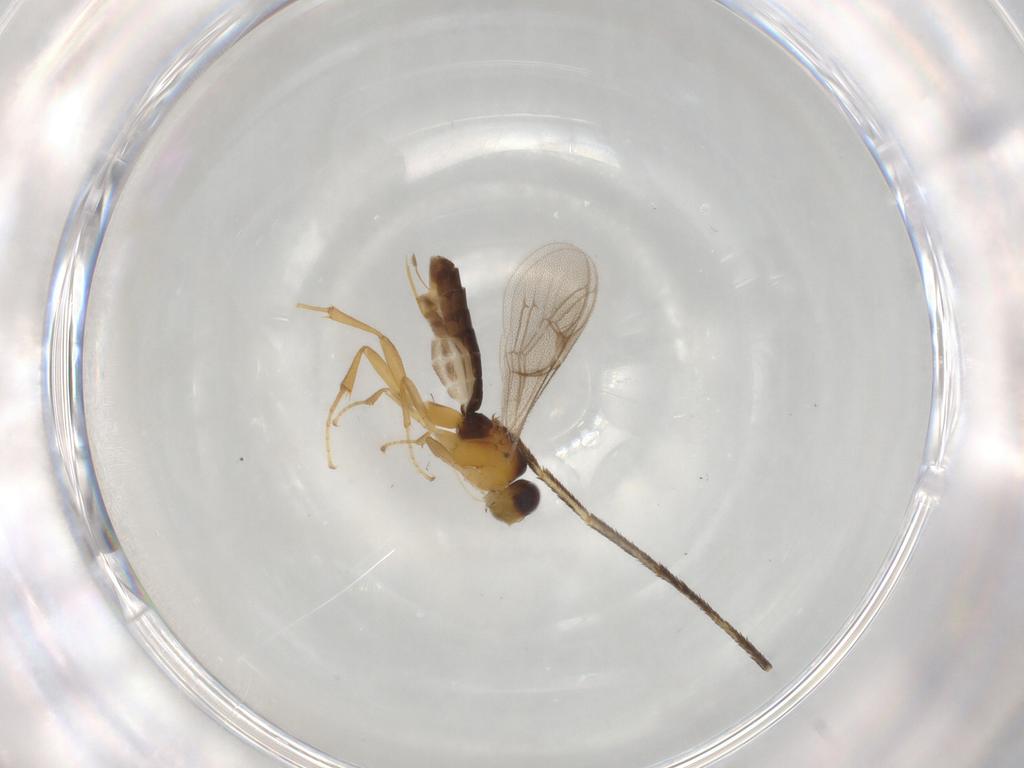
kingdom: Animalia
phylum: Arthropoda
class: Insecta
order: Hymenoptera
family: Ichneumonidae
